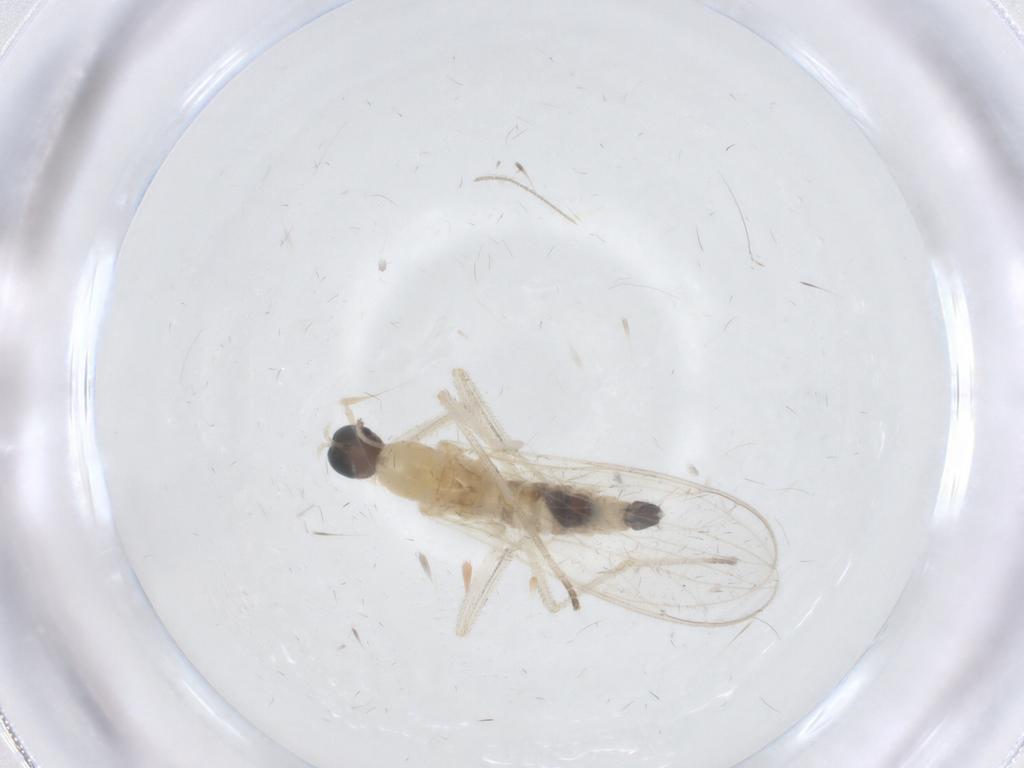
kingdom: Animalia
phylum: Arthropoda
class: Insecta
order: Diptera
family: Empididae
